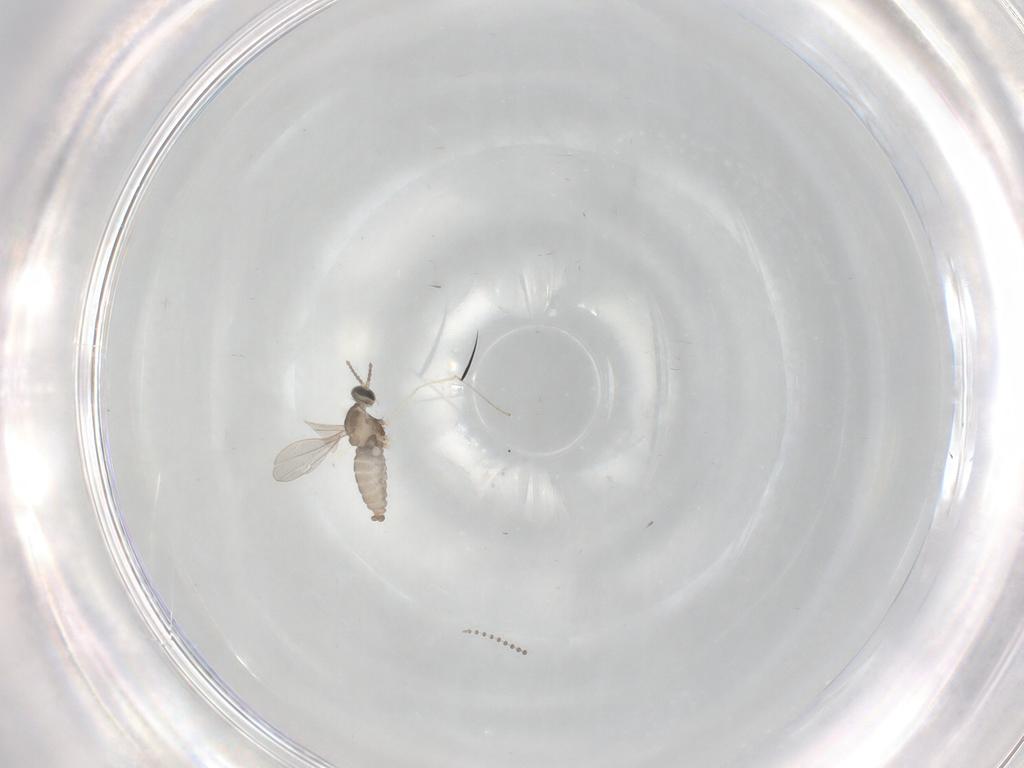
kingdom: Animalia
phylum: Arthropoda
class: Insecta
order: Diptera
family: Cecidomyiidae
